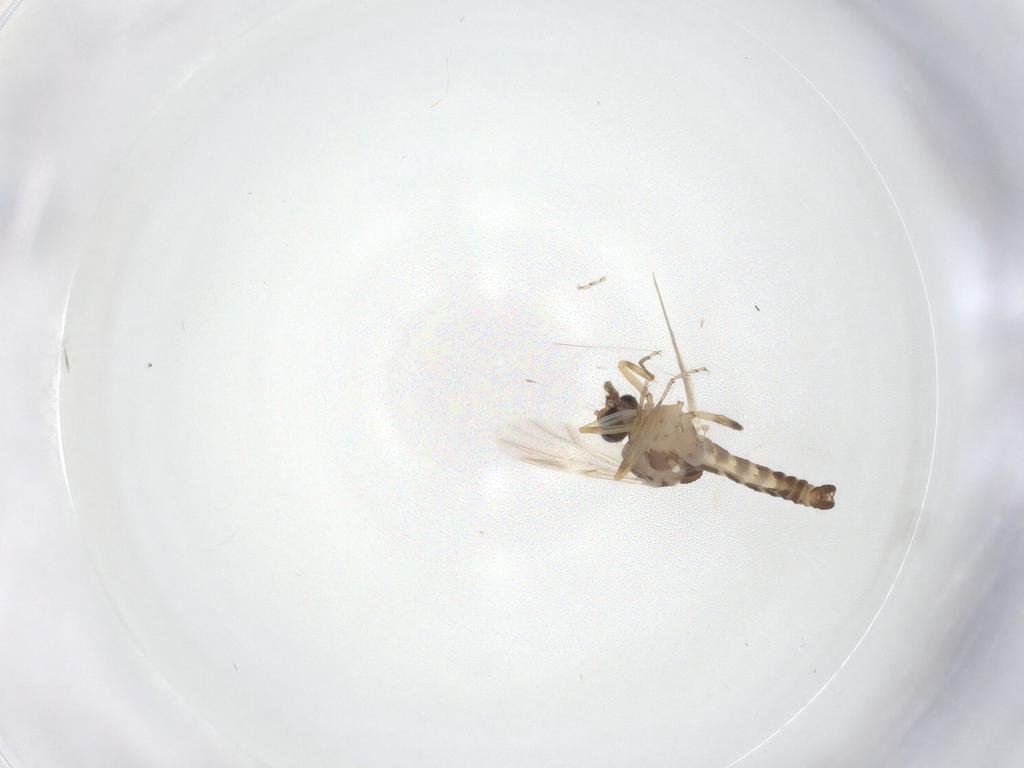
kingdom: Animalia
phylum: Arthropoda
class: Insecta
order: Diptera
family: Ceratopogonidae
